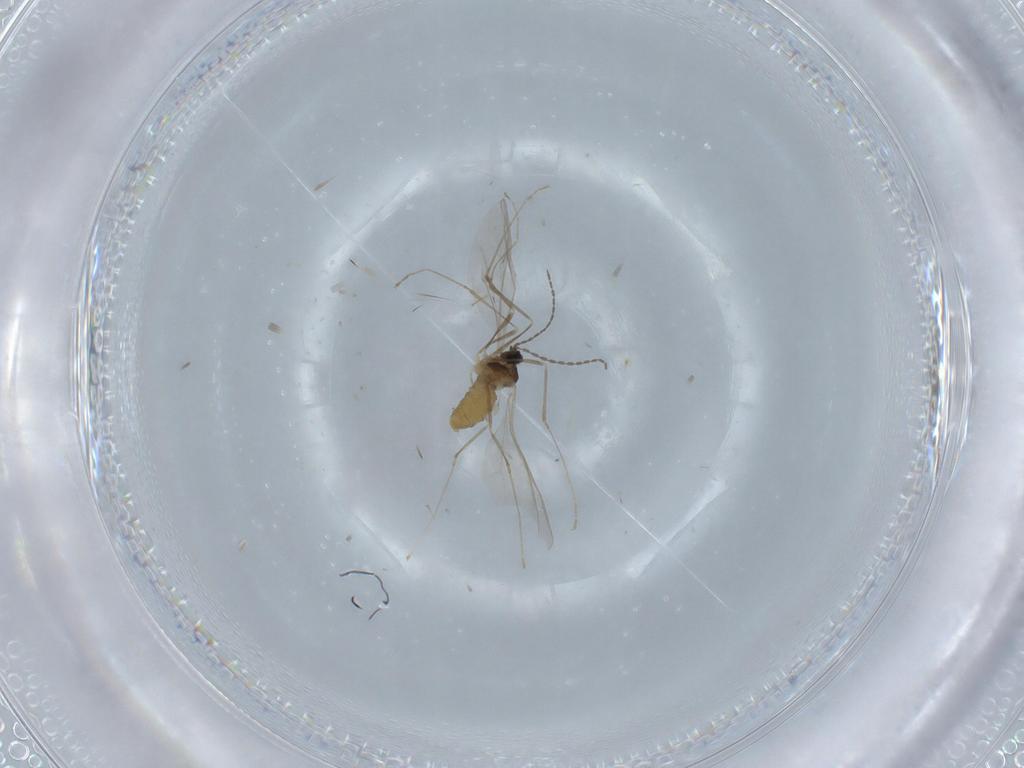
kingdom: Animalia
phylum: Arthropoda
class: Insecta
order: Diptera
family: Cecidomyiidae
